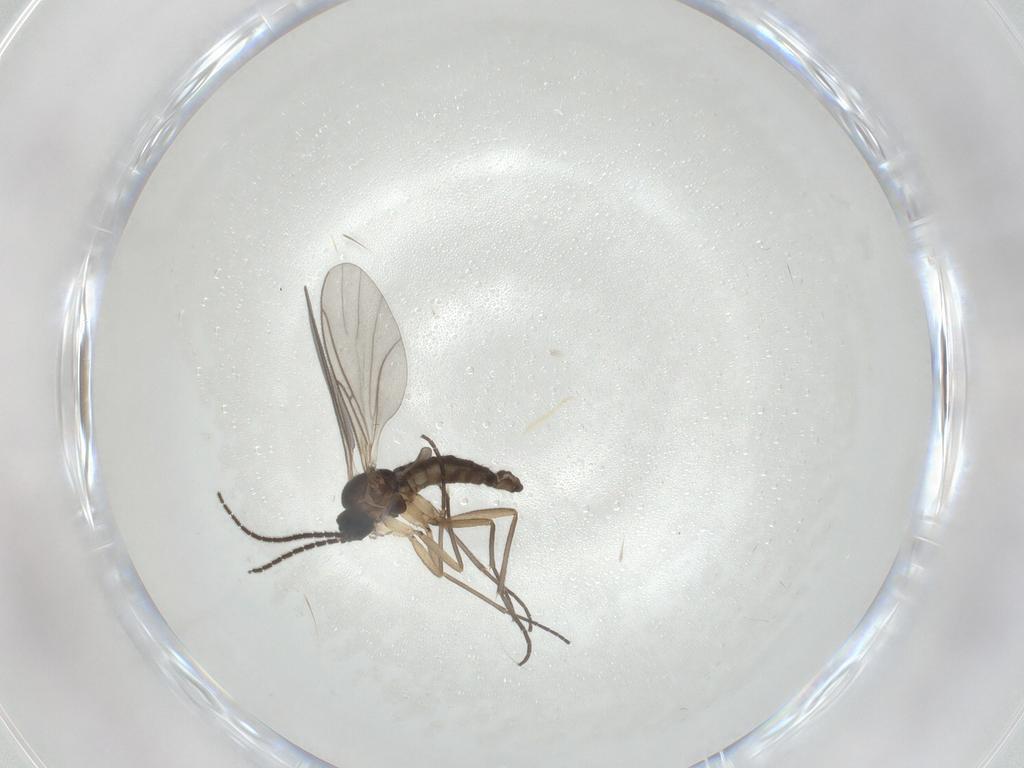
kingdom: Animalia
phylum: Arthropoda
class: Insecta
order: Diptera
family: Sciaridae
